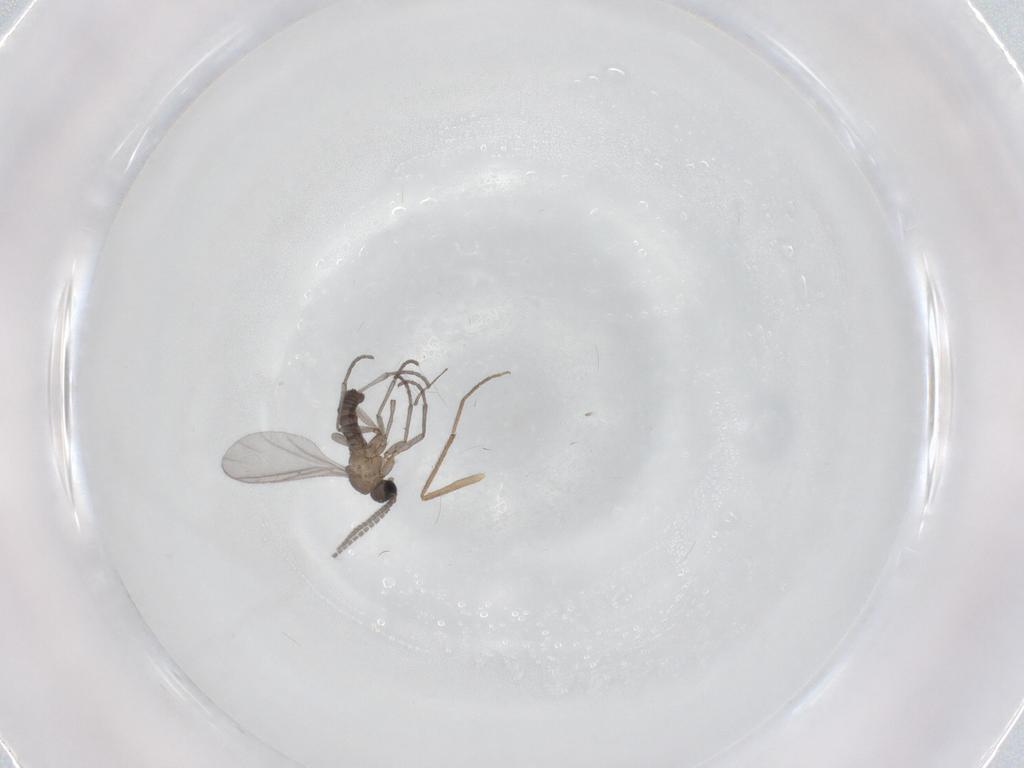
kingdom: Animalia
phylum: Arthropoda
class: Insecta
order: Diptera
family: Sciaridae
